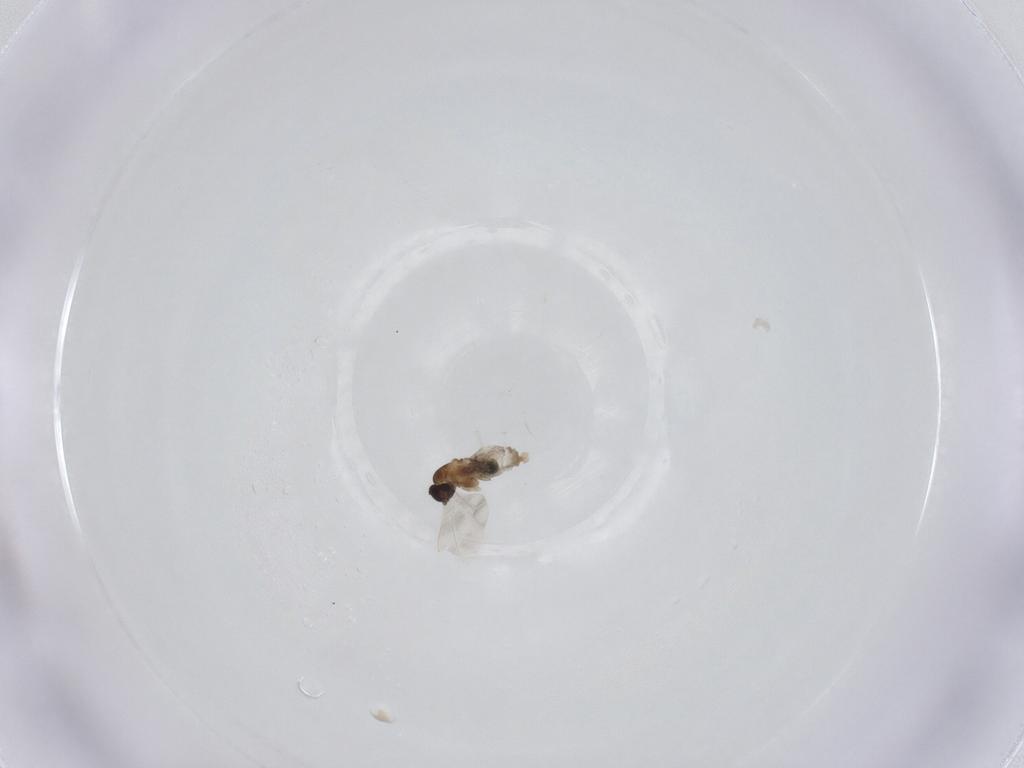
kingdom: Animalia
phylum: Arthropoda
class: Insecta
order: Diptera
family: Cecidomyiidae
